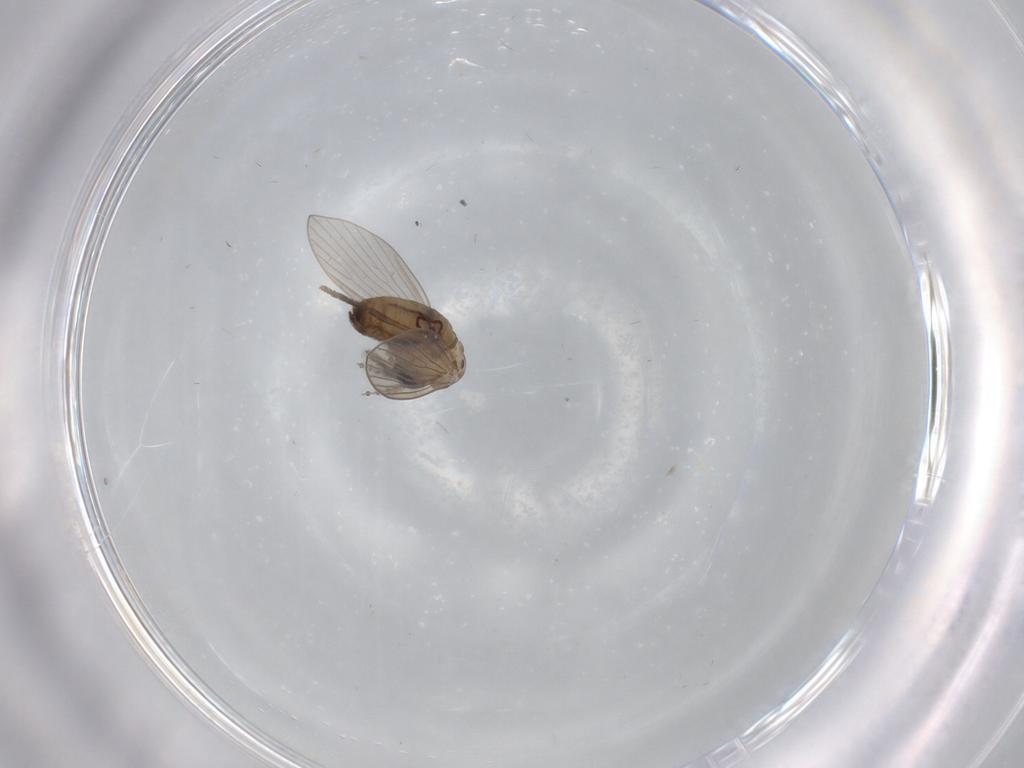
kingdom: Animalia
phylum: Arthropoda
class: Insecta
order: Diptera
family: Psychodidae
